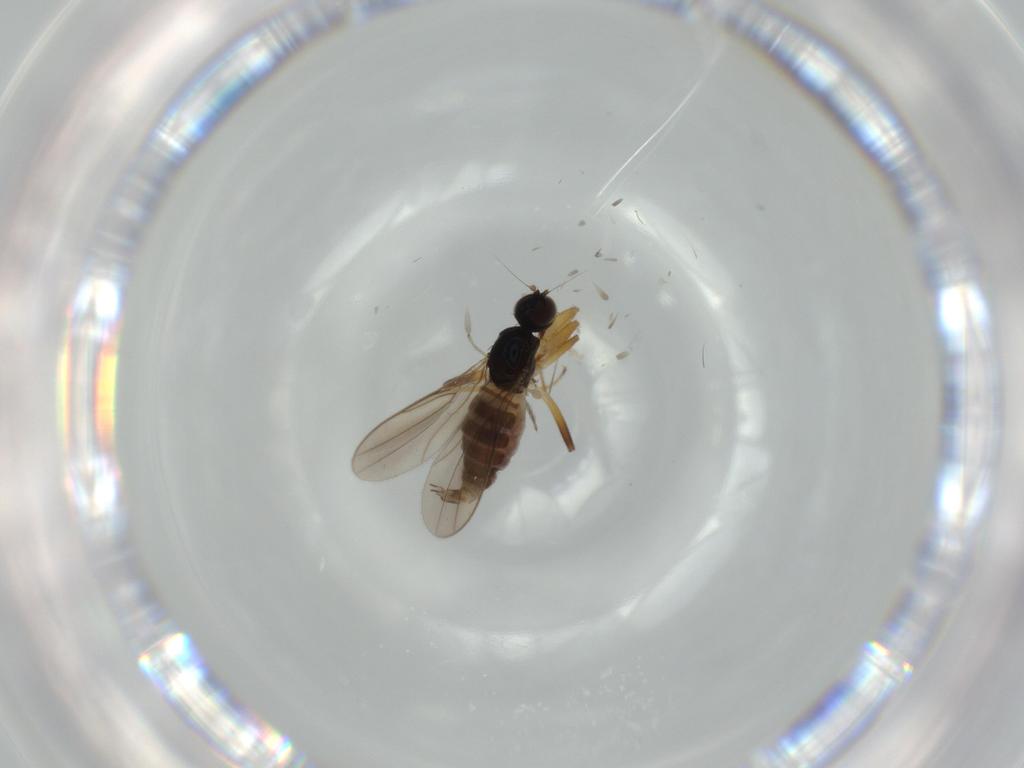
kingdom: Animalia
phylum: Arthropoda
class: Insecta
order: Diptera
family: Hybotidae
